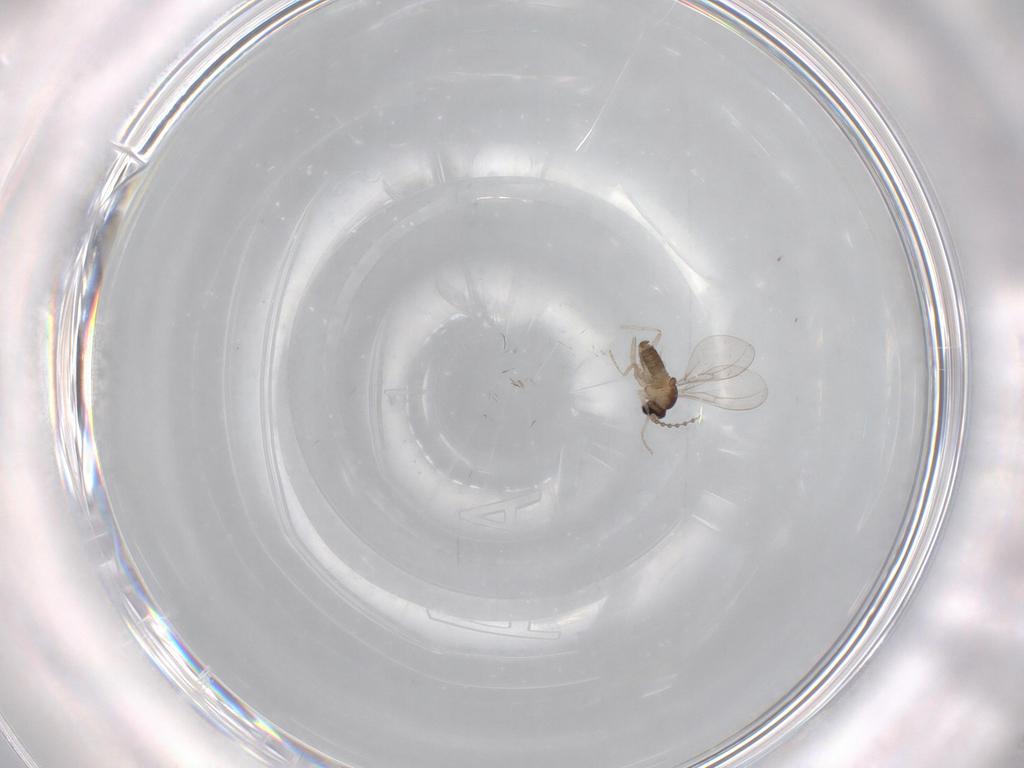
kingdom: Animalia
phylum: Arthropoda
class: Insecta
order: Diptera
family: Cecidomyiidae
